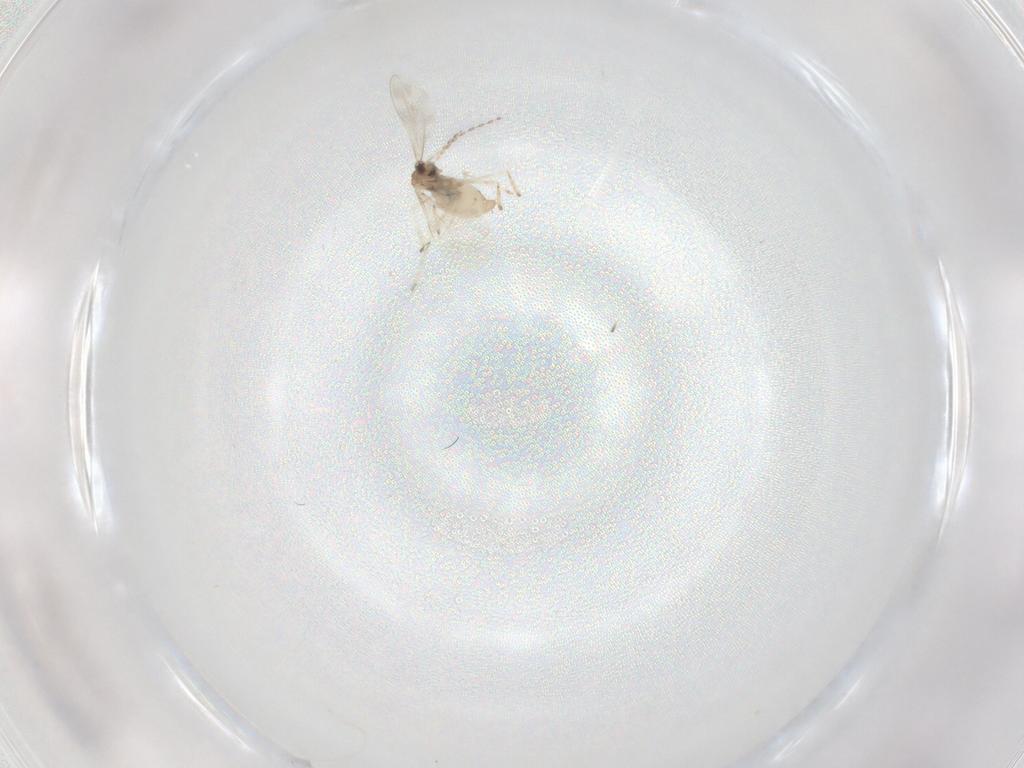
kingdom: Animalia
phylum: Arthropoda
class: Insecta
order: Diptera
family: Cecidomyiidae
